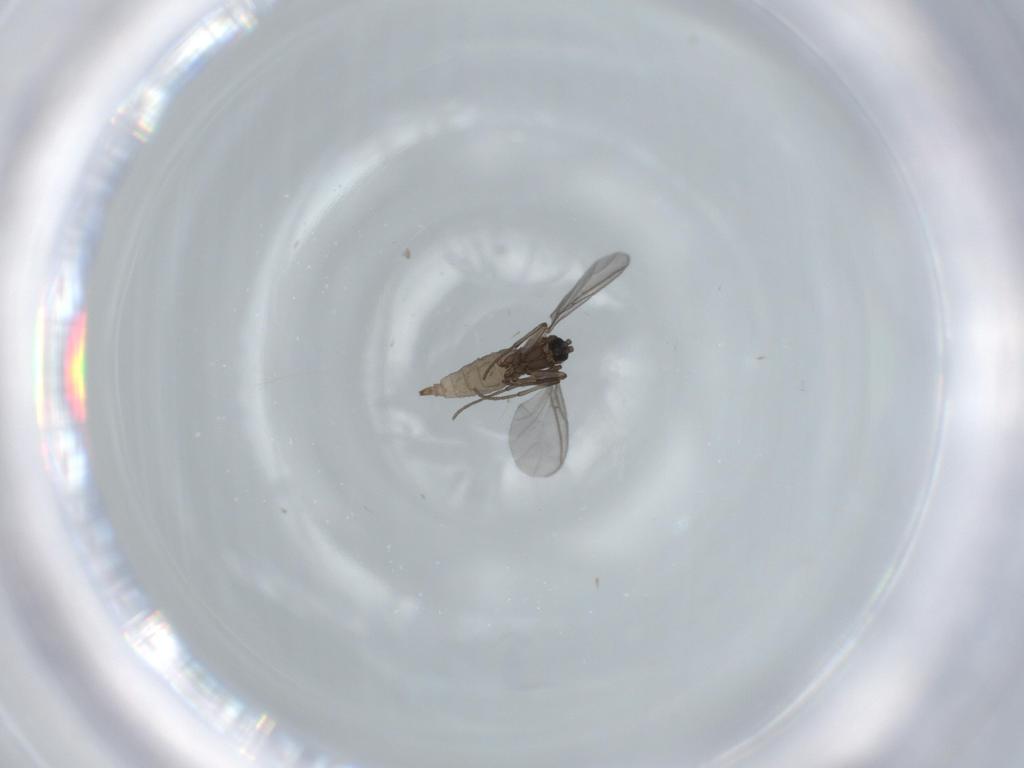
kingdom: Animalia
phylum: Arthropoda
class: Insecta
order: Diptera
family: Sciaridae
